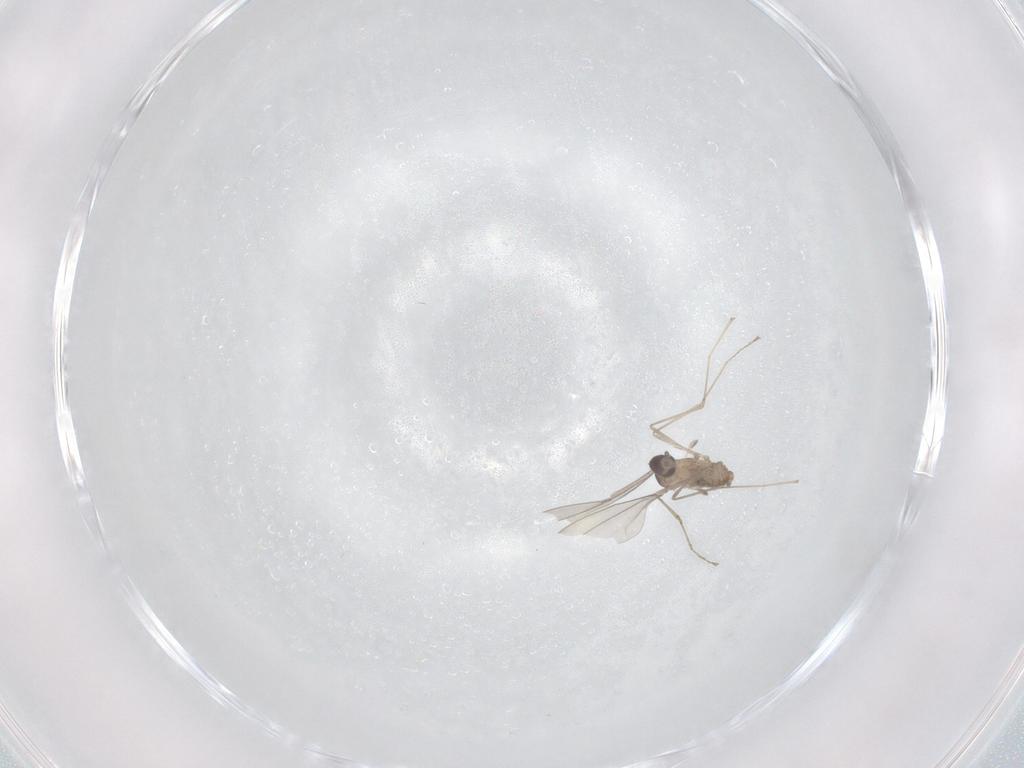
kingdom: Animalia
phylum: Arthropoda
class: Insecta
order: Diptera
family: Cecidomyiidae
